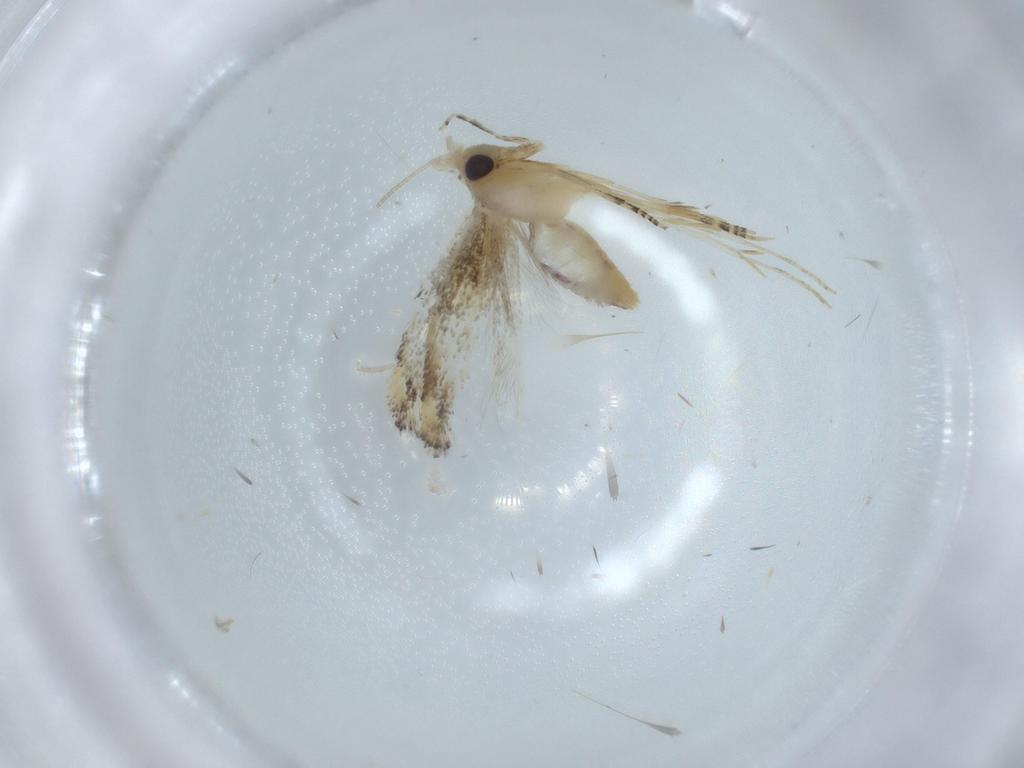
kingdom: Animalia
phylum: Arthropoda
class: Insecta
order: Lepidoptera
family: Bucculatricidae
